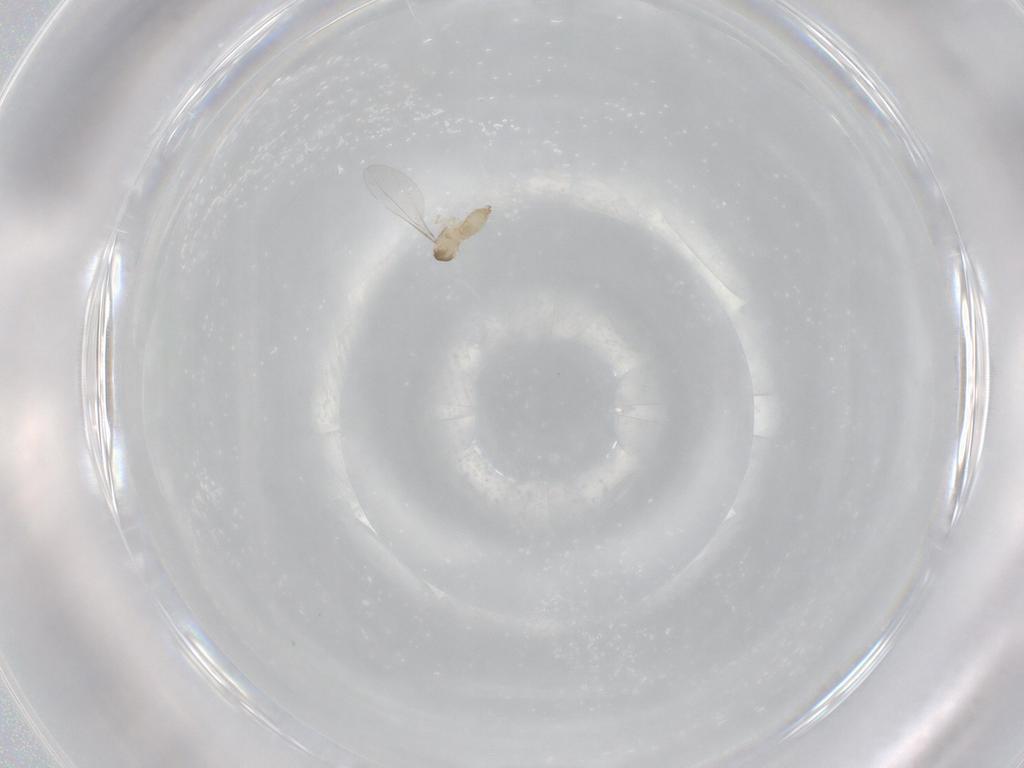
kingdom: Animalia
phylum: Arthropoda
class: Insecta
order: Diptera
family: Cecidomyiidae
